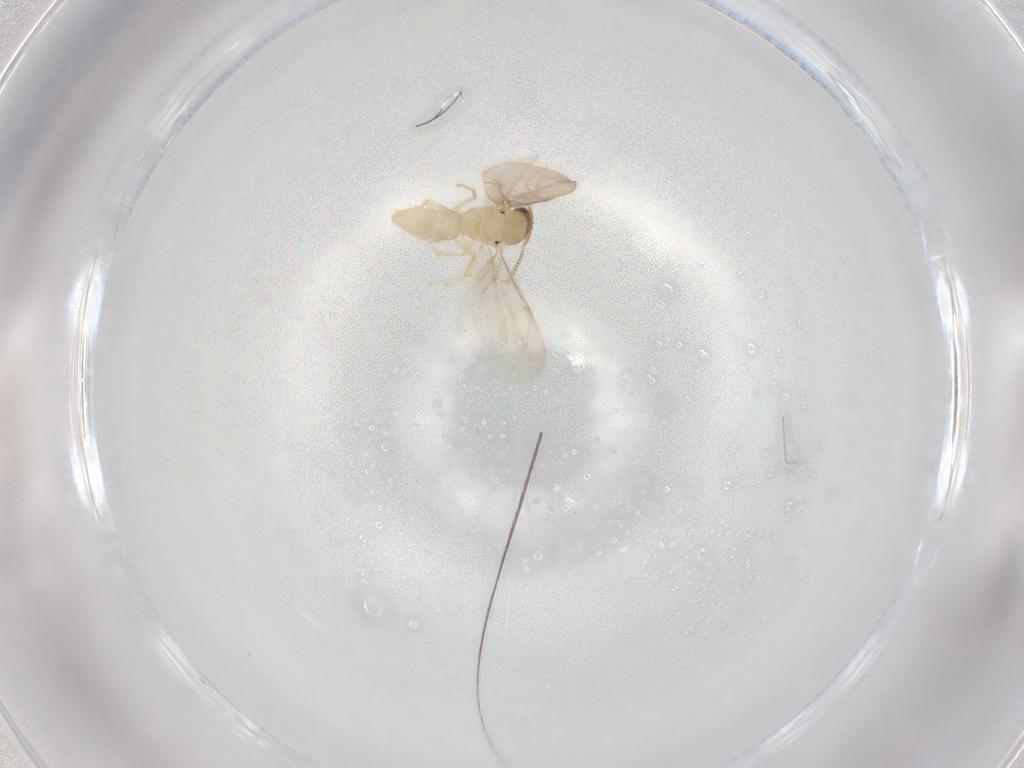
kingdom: Animalia
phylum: Arthropoda
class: Insecta
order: Hymenoptera
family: Formicidae
